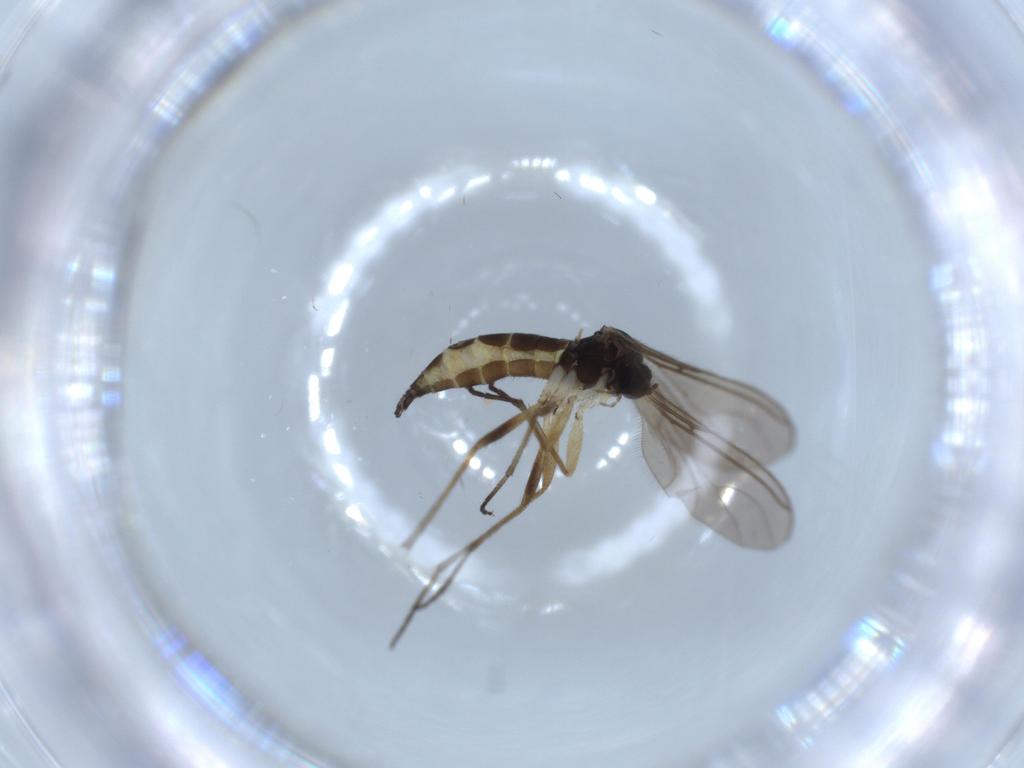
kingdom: Animalia
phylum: Arthropoda
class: Insecta
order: Diptera
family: Sciaridae
